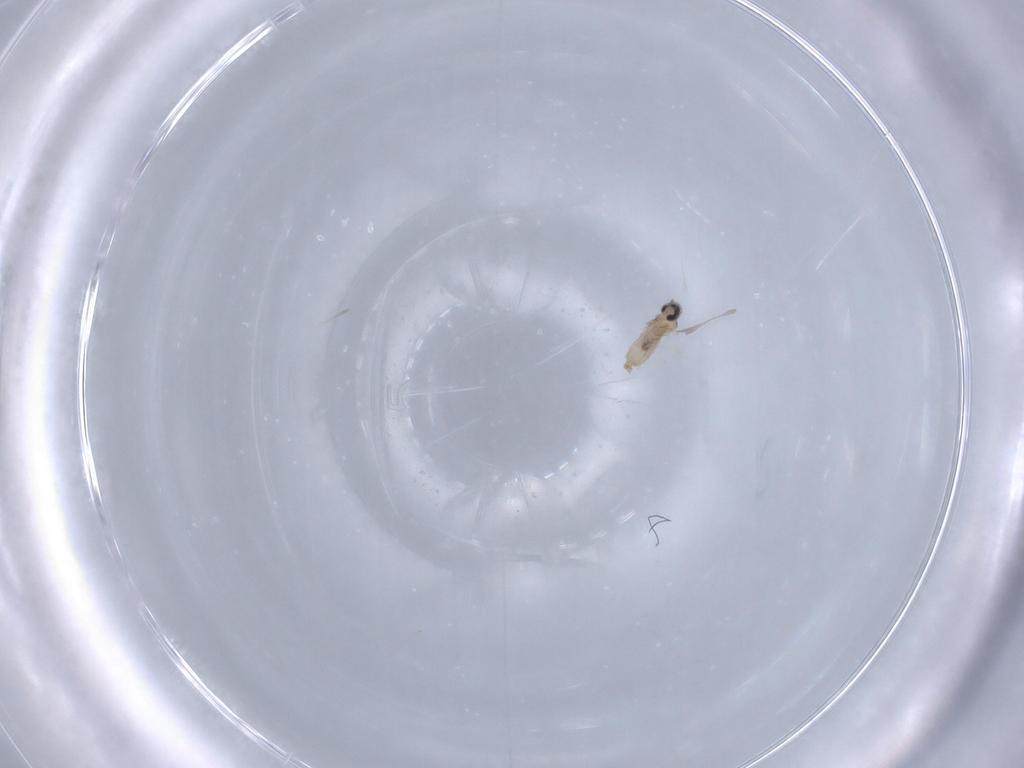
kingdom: Animalia
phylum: Arthropoda
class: Insecta
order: Diptera
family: Cecidomyiidae
